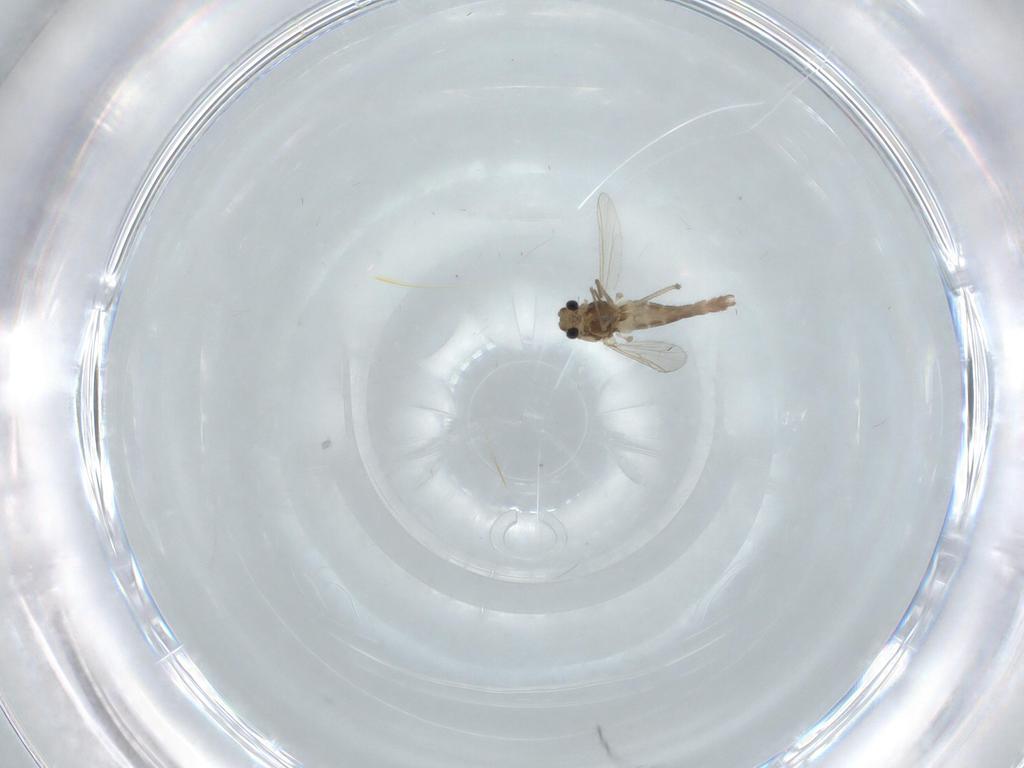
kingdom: Animalia
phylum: Arthropoda
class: Insecta
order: Diptera
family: Chironomidae
